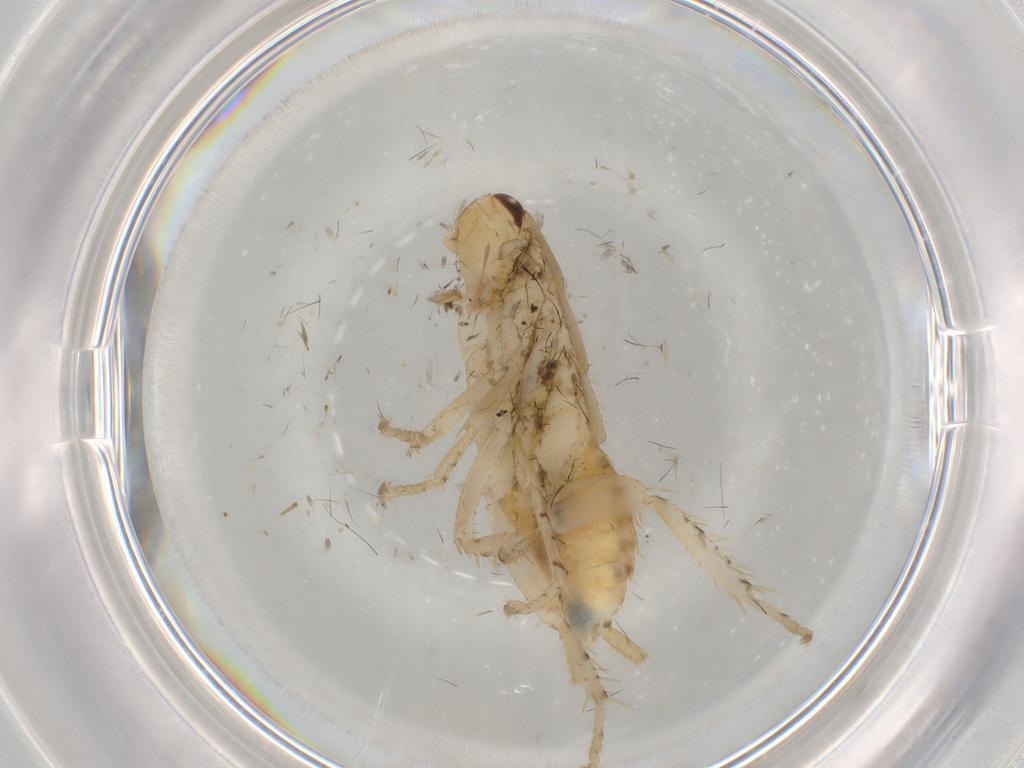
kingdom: Animalia
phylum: Arthropoda
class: Insecta
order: Blattodea
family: Ectobiidae
